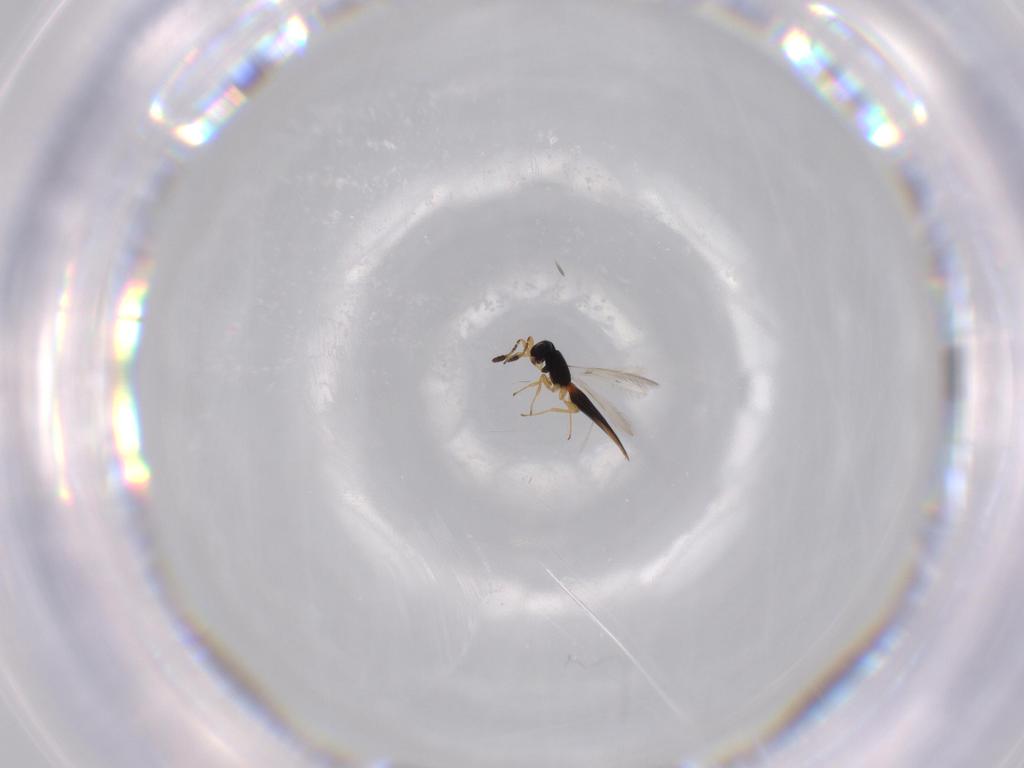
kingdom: Animalia
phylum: Arthropoda
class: Insecta
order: Hymenoptera
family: Scelionidae
